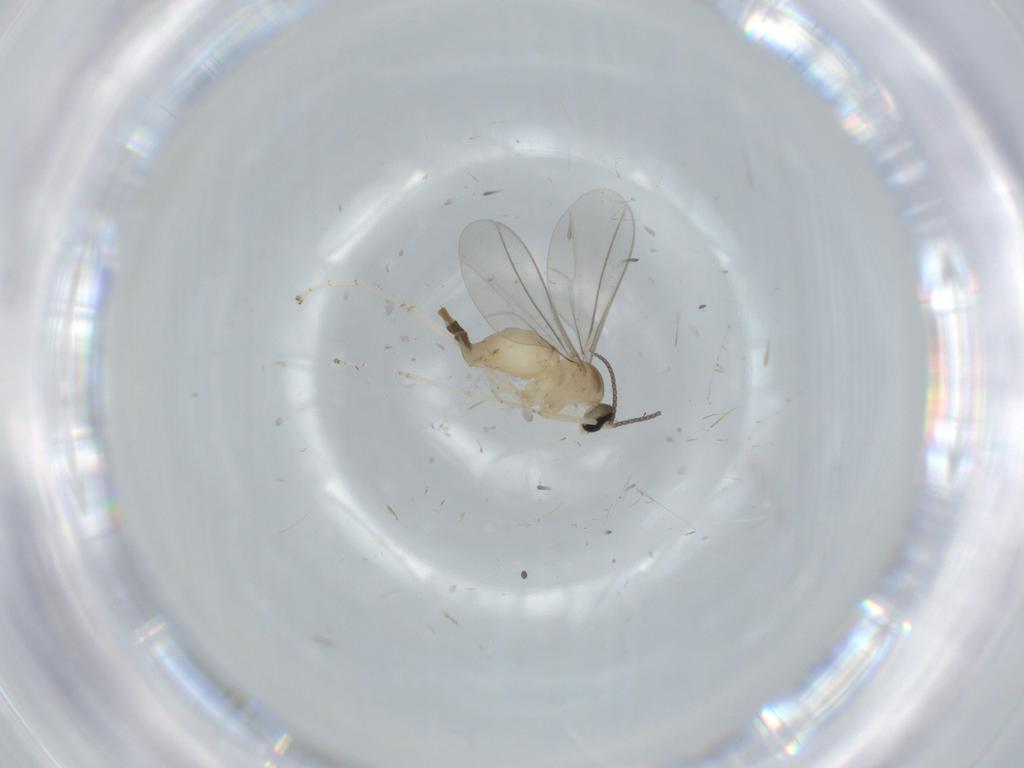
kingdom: Animalia
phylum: Arthropoda
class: Insecta
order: Diptera
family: Cecidomyiidae
